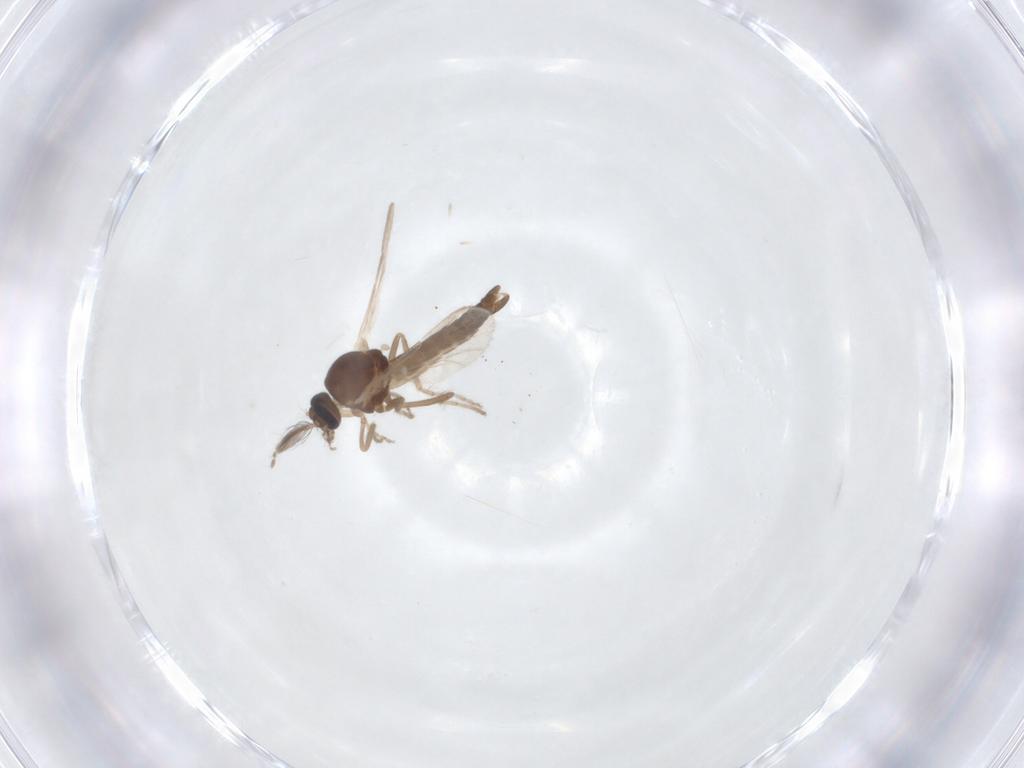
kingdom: Animalia
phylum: Arthropoda
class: Insecta
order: Diptera
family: Ceratopogonidae
